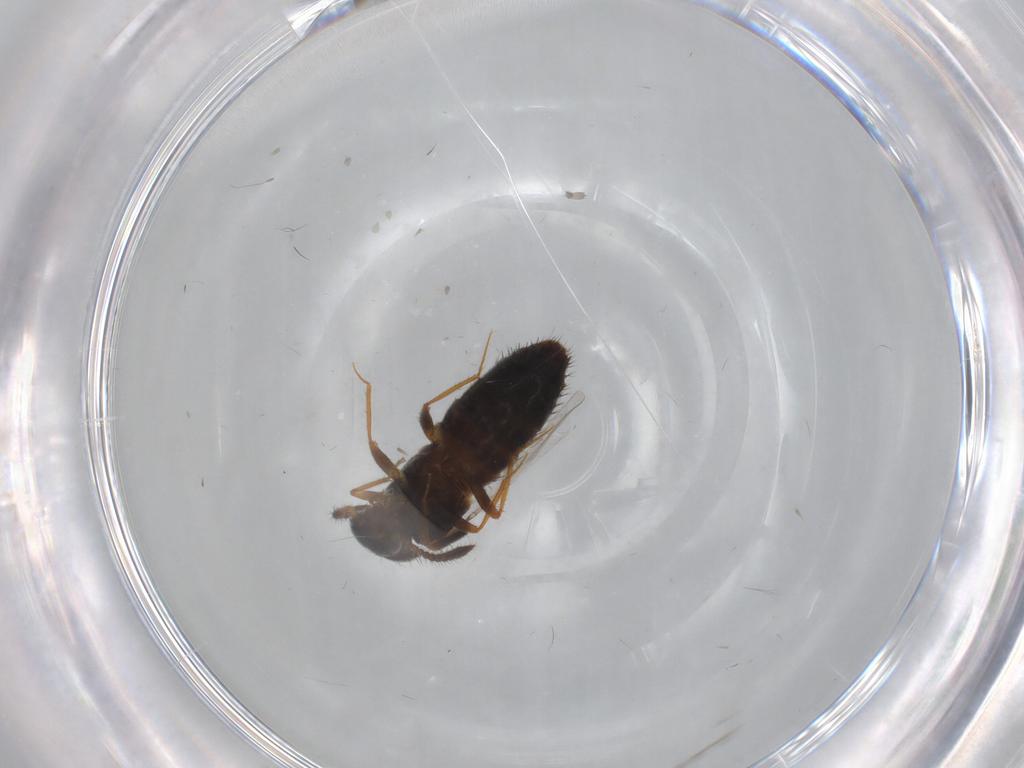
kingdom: Animalia
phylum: Arthropoda
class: Insecta
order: Coleoptera
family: Staphylinidae
